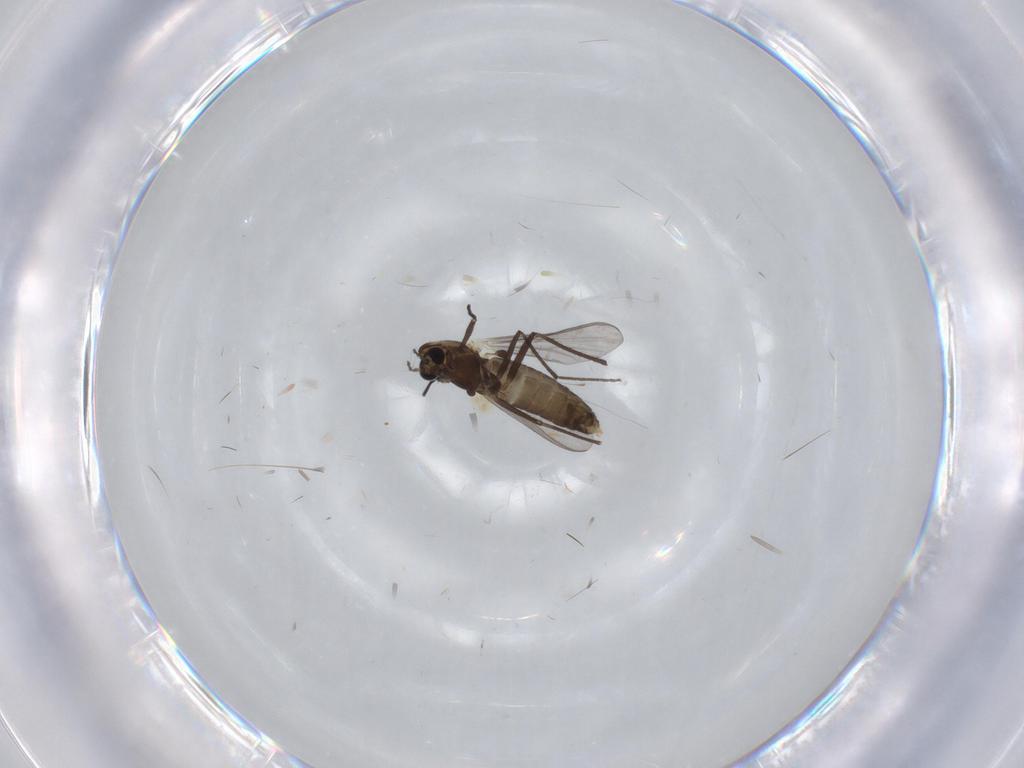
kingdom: Animalia
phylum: Arthropoda
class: Insecta
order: Diptera
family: Chironomidae
